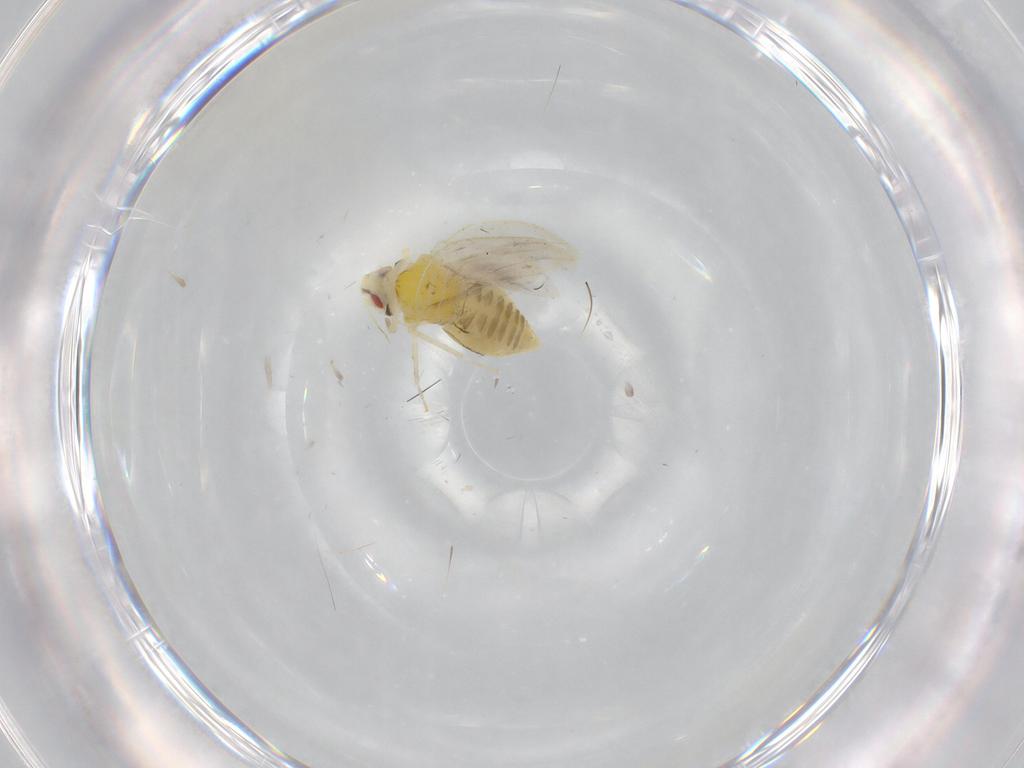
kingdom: Animalia
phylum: Arthropoda
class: Insecta
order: Hemiptera
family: Aleyrodidae
